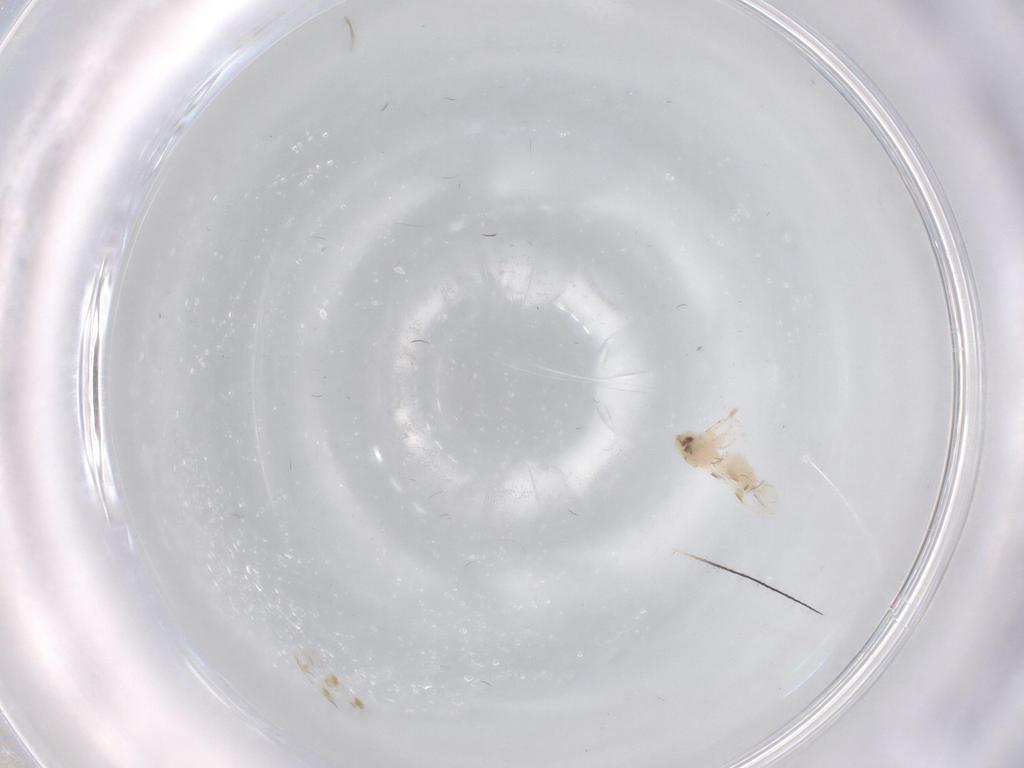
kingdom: Animalia
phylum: Arthropoda
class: Insecta
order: Hemiptera
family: Aleyrodidae
